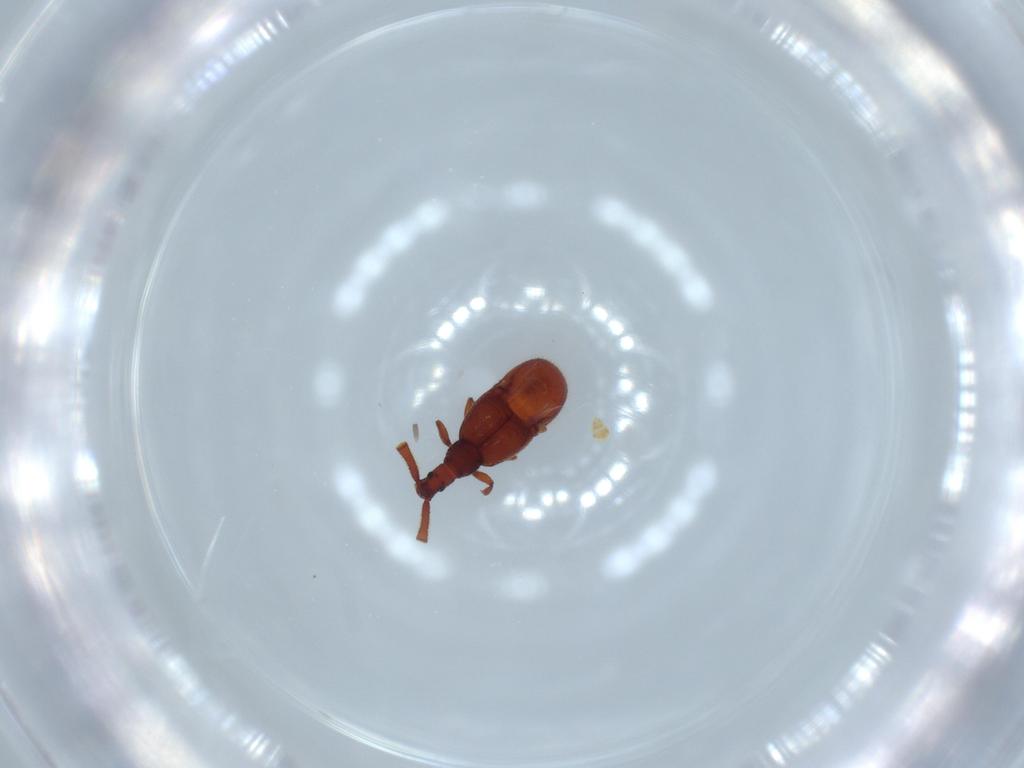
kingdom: Animalia
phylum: Arthropoda
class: Insecta
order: Coleoptera
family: Staphylinidae
